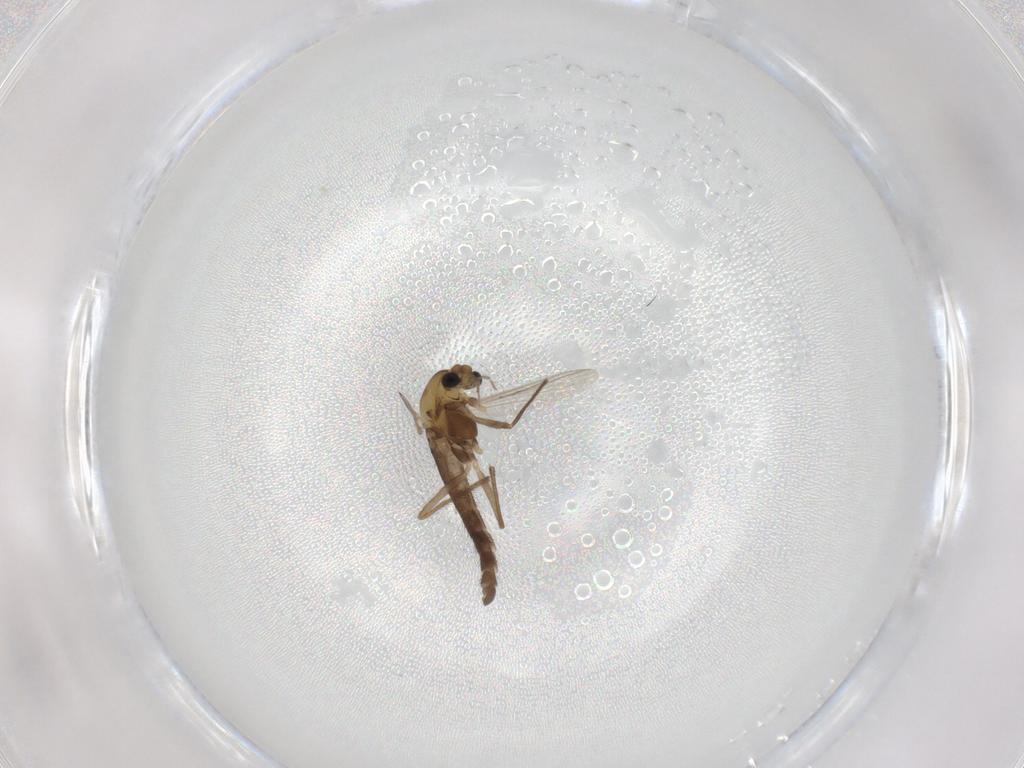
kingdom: Animalia
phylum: Arthropoda
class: Insecta
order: Diptera
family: Chironomidae
